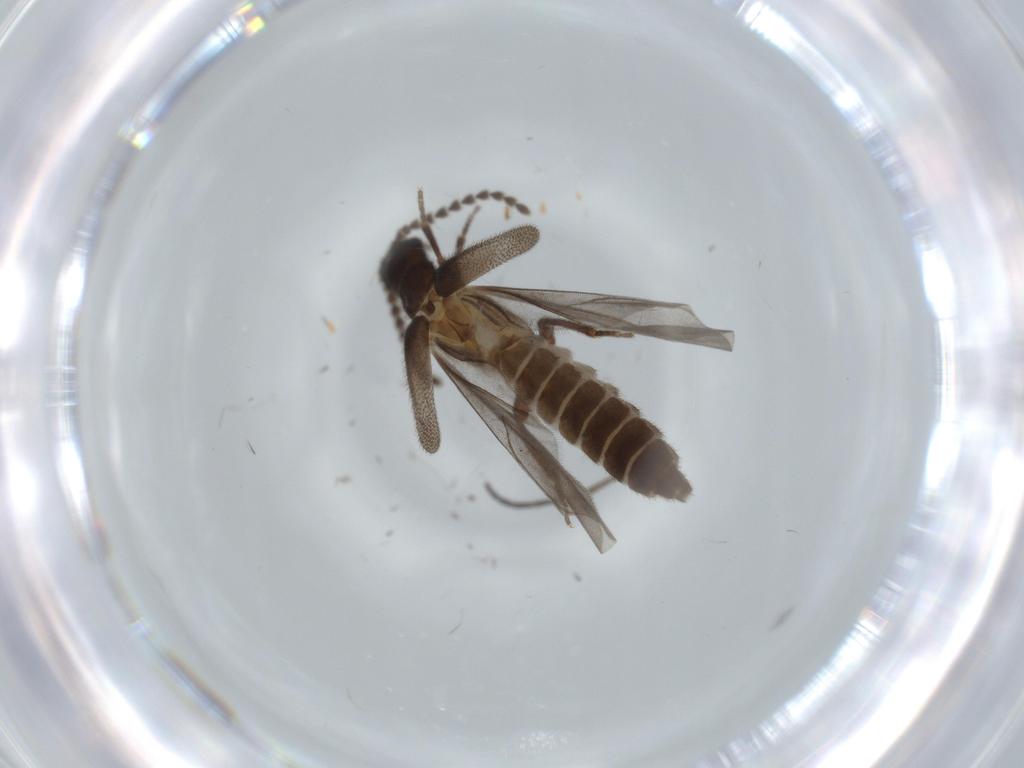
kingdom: Animalia
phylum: Arthropoda
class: Insecta
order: Coleoptera
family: Omethidae
